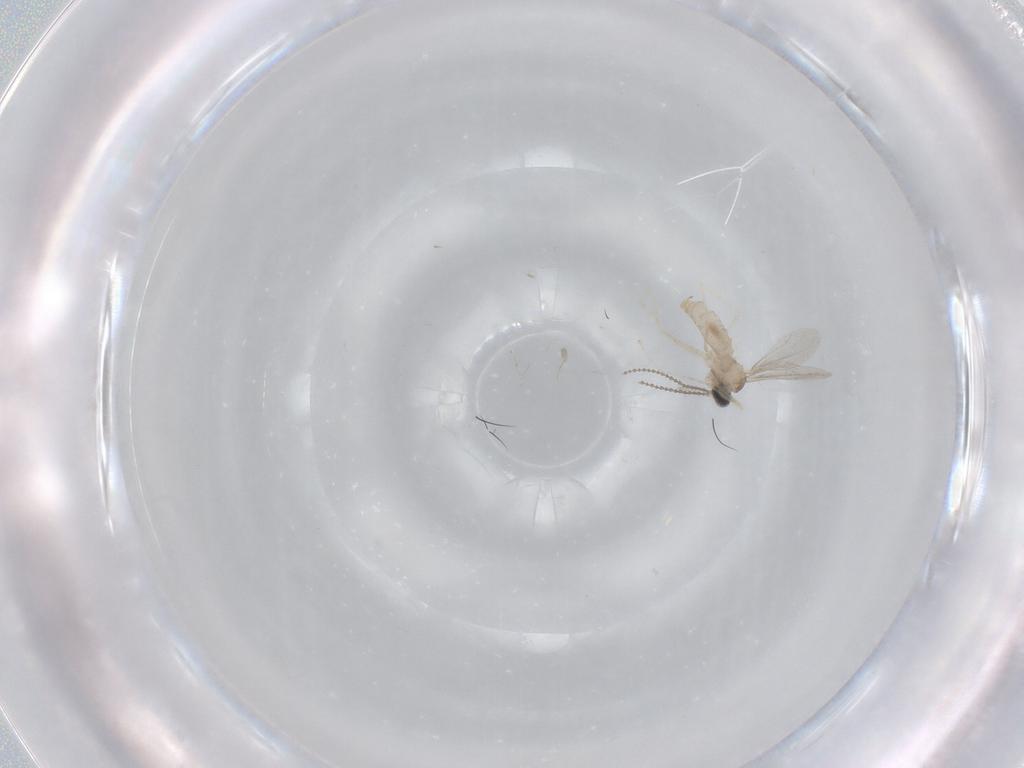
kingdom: Animalia
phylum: Arthropoda
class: Insecta
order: Diptera
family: Cecidomyiidae
